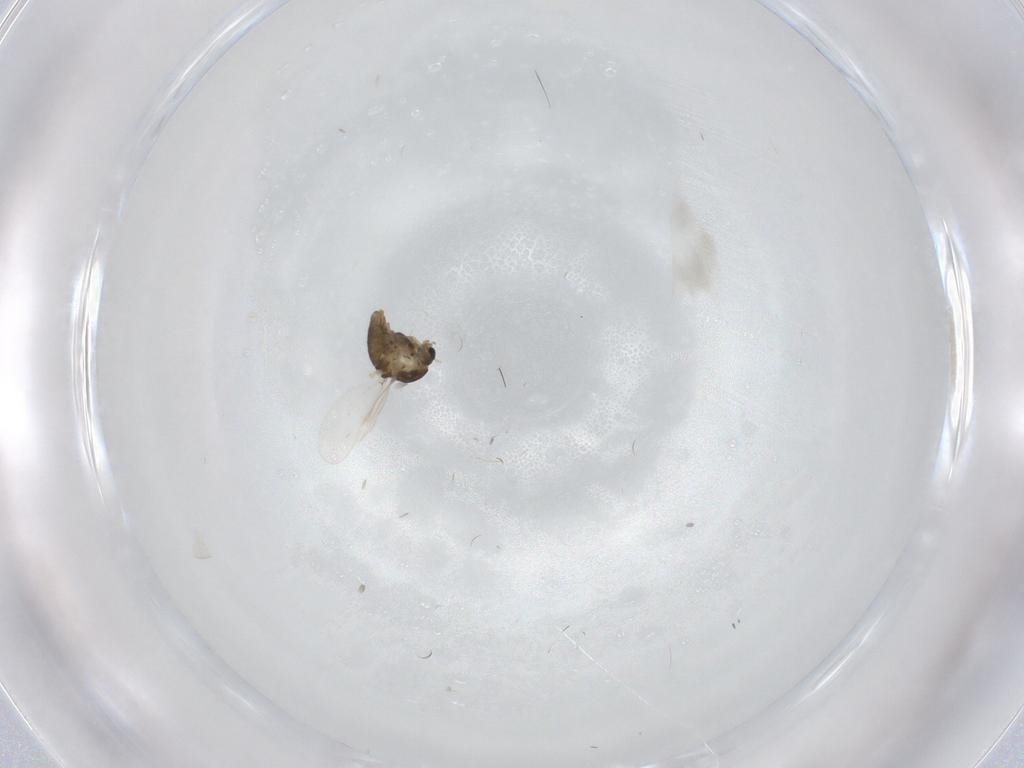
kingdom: Animalia
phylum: Arthropoda
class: Insecta
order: Diptera
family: Chironomidae
